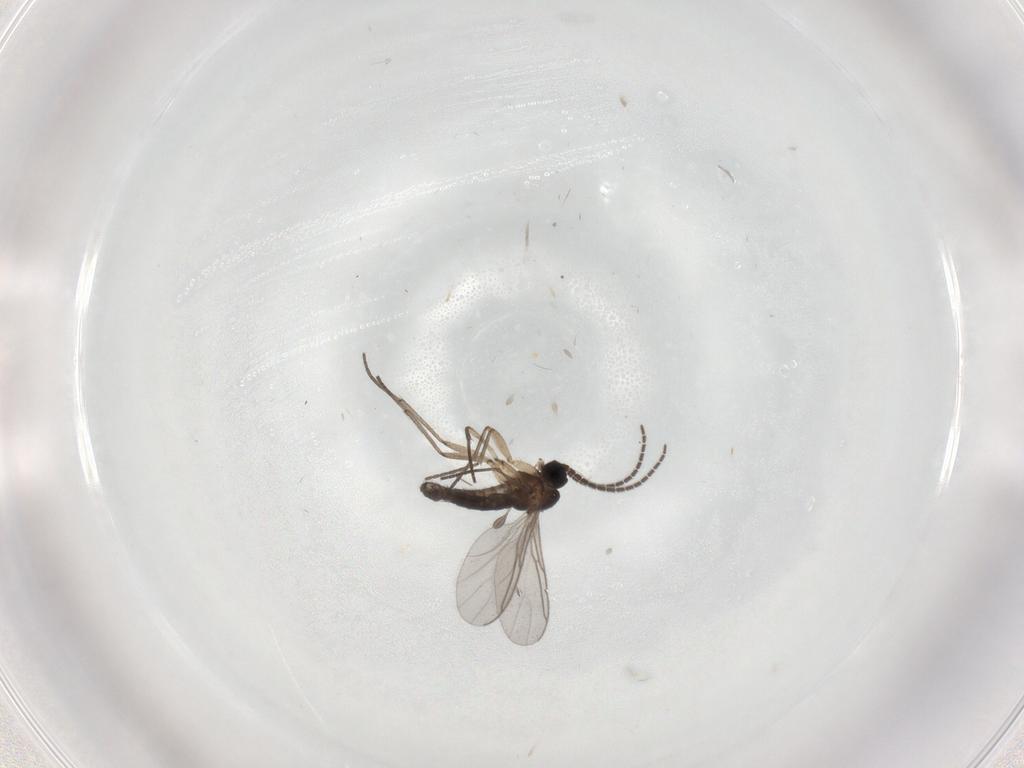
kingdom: Animalia
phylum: Arthropoda
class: Insecta
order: Diptera
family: Sciaridae
